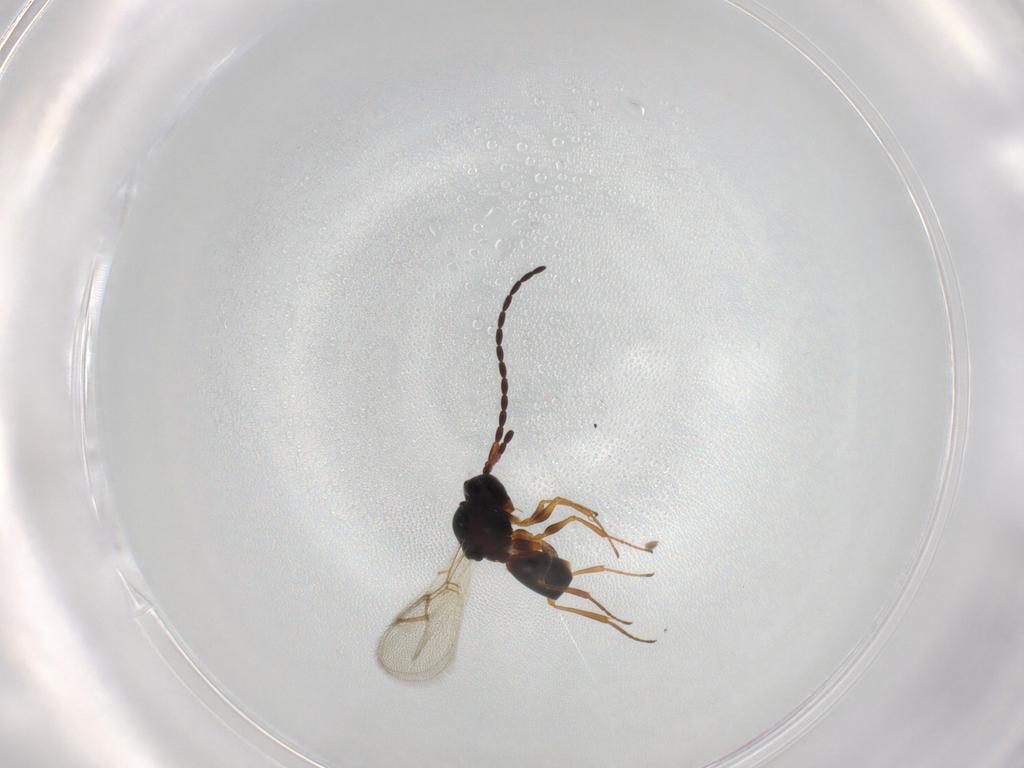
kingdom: Animalia
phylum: Arthropoda
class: Insecta
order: Hymenoptera
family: Figitidae
